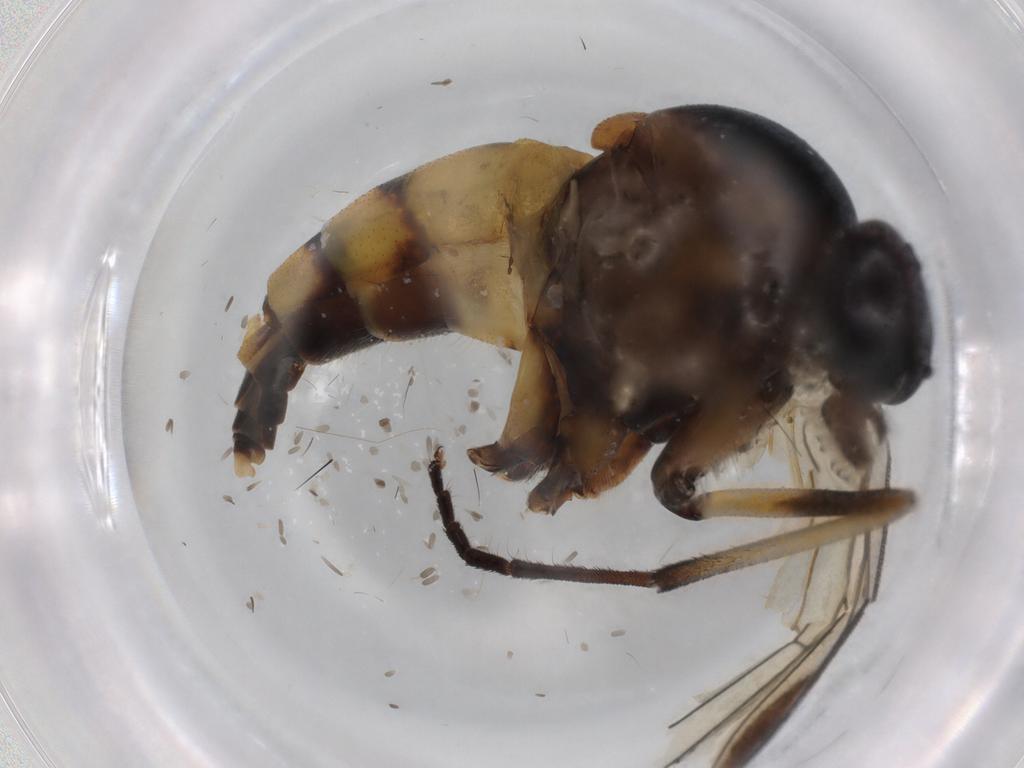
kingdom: Animalia
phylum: Arthropoda
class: Insecta
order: Diptera
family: Rhagionidae
